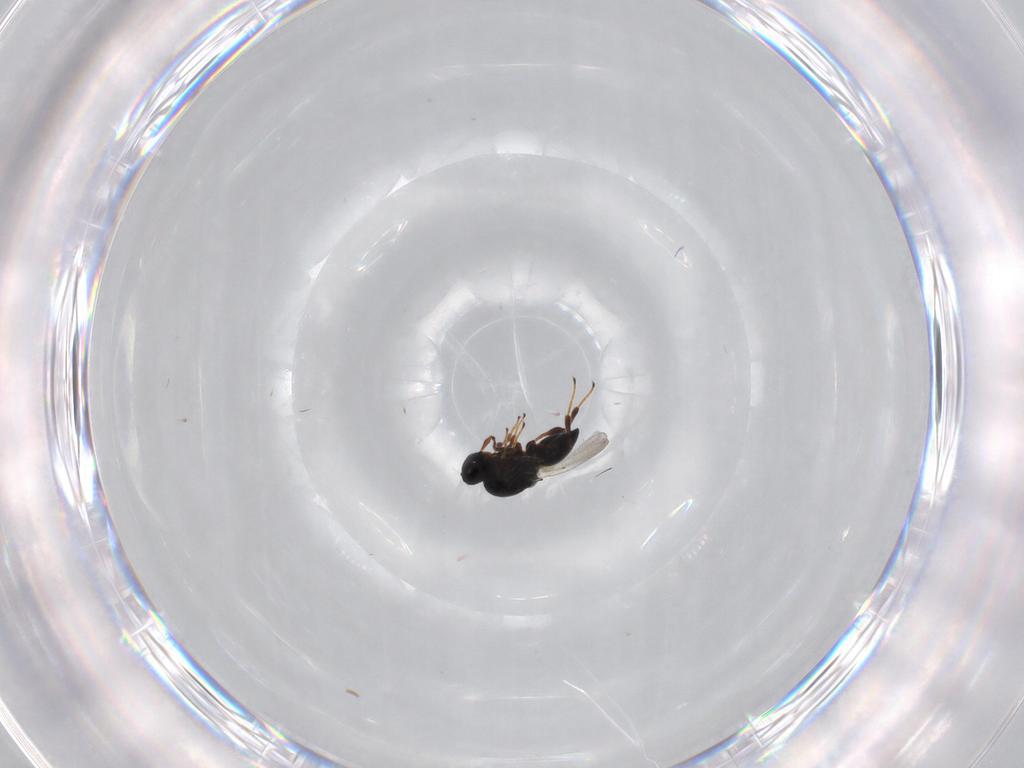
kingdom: Animalia
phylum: Arthropoda
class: Insecta
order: Hymenoptera
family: Platygastridae
